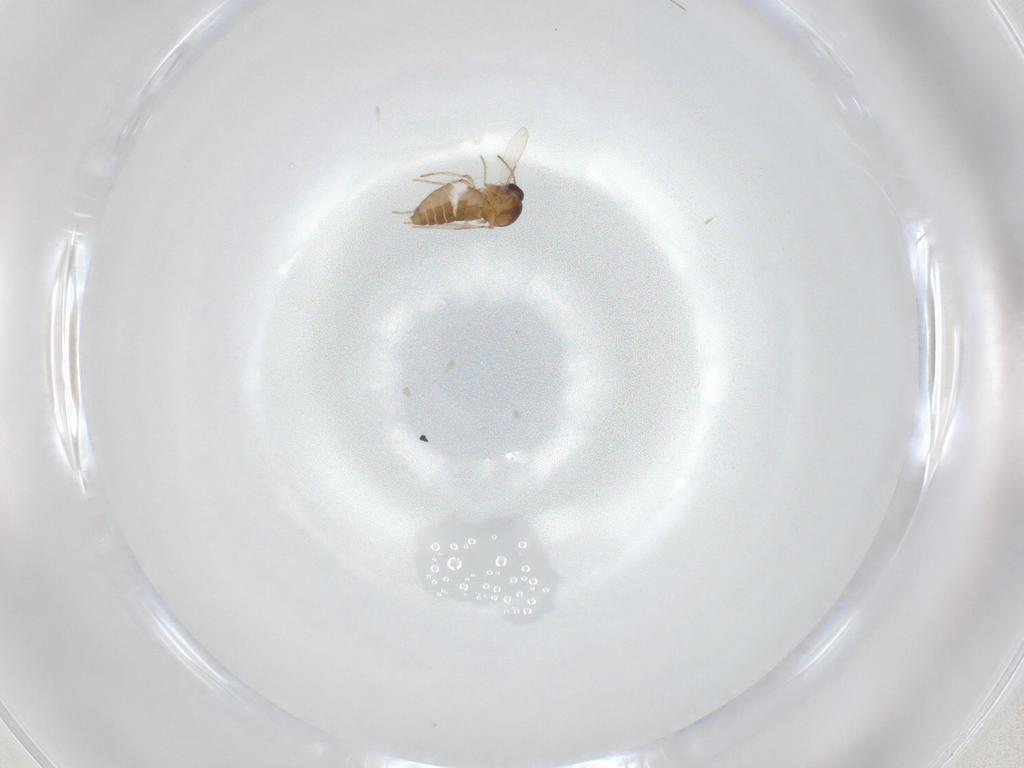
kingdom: Animalia
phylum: Arthropoda
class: Insecta
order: Diptera
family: Ceratopogonidae
